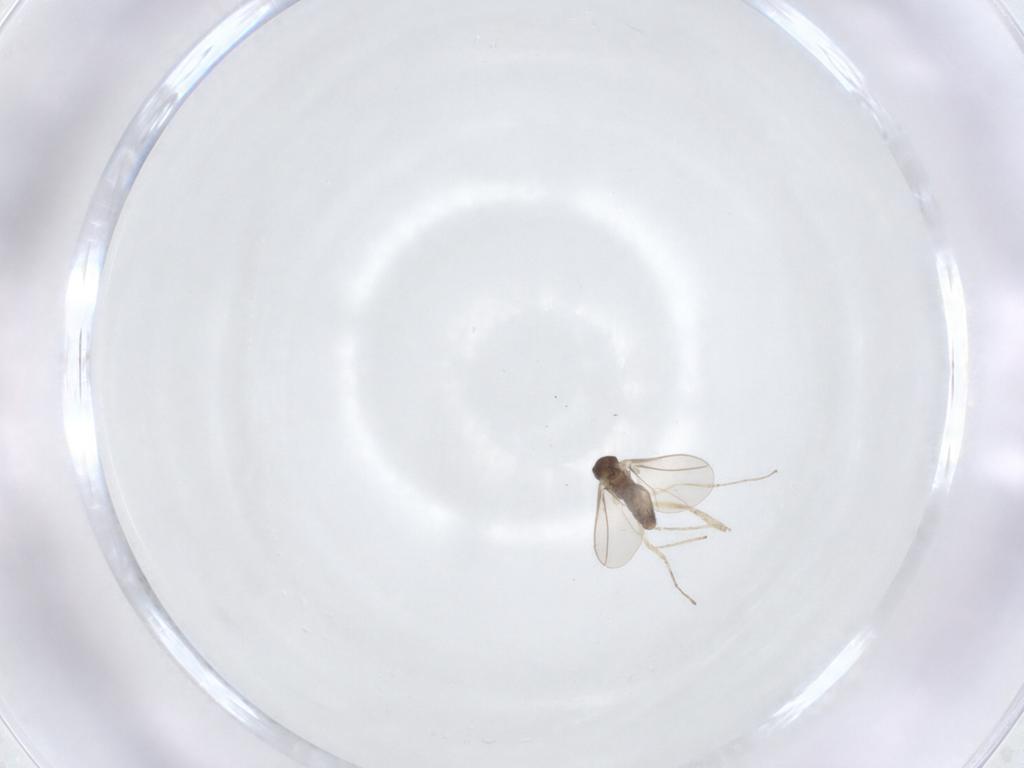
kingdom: Animalia
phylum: Arthropoda
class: Insecta
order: Diptera
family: Cecidomyiidae
